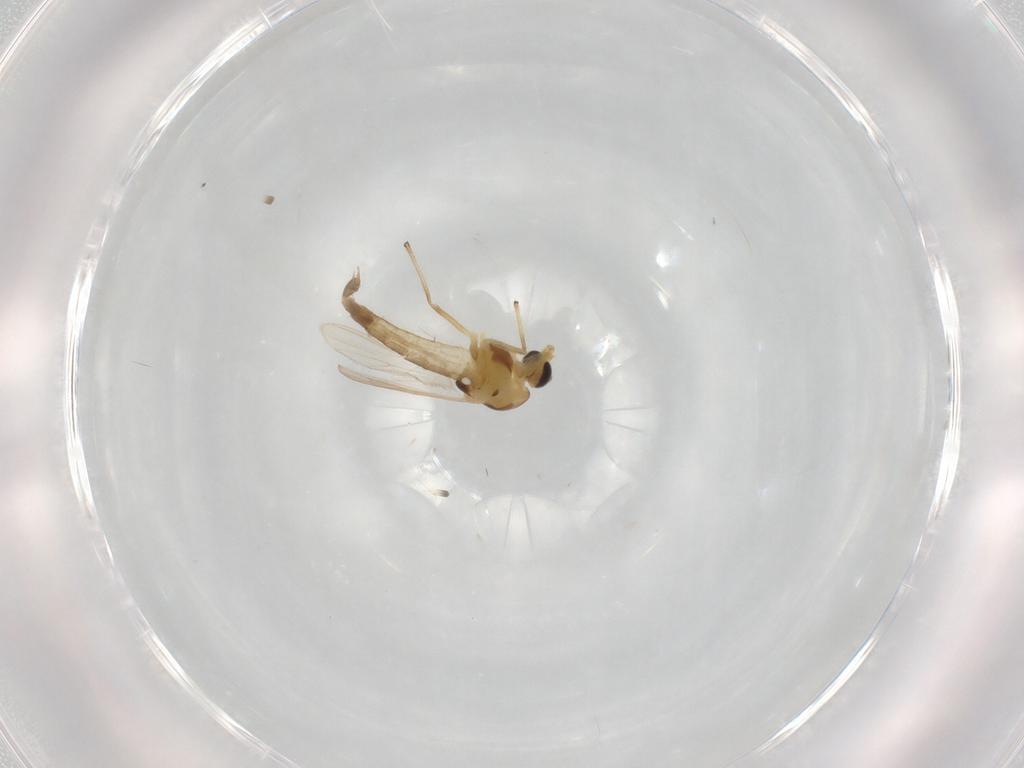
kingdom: Animalia
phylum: Arthropoda
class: Insecta
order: Diptera
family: Chironomidae
